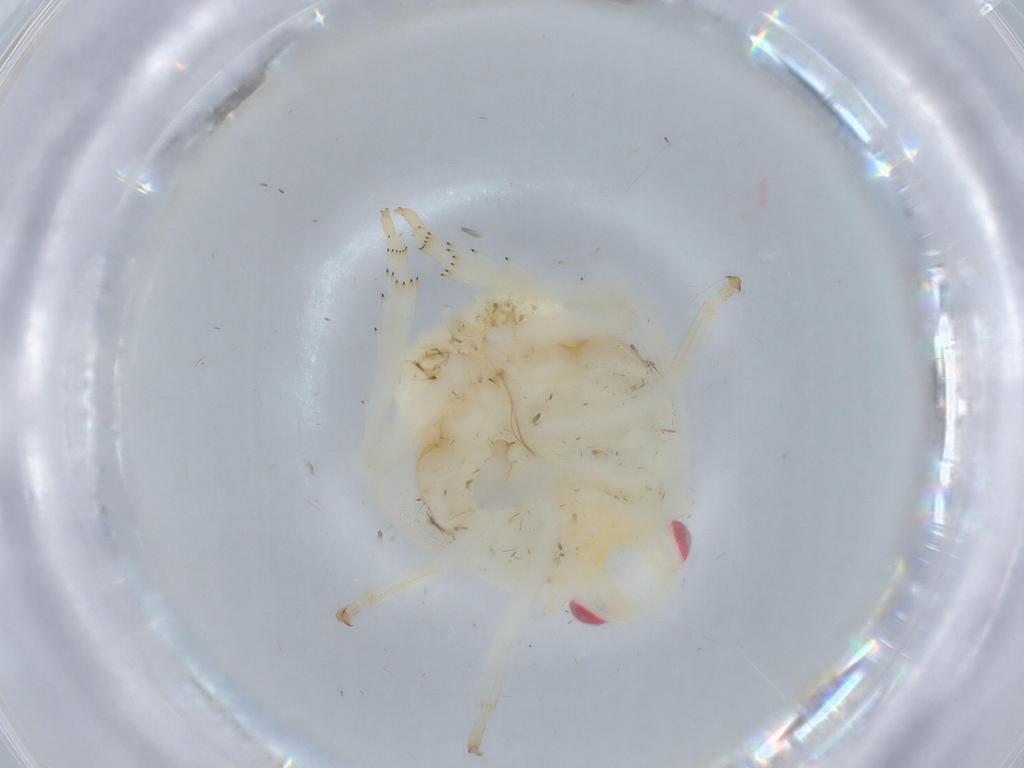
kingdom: Animalia
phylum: Arthropoda
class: Insecta
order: Hemiptera
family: Flatidae
